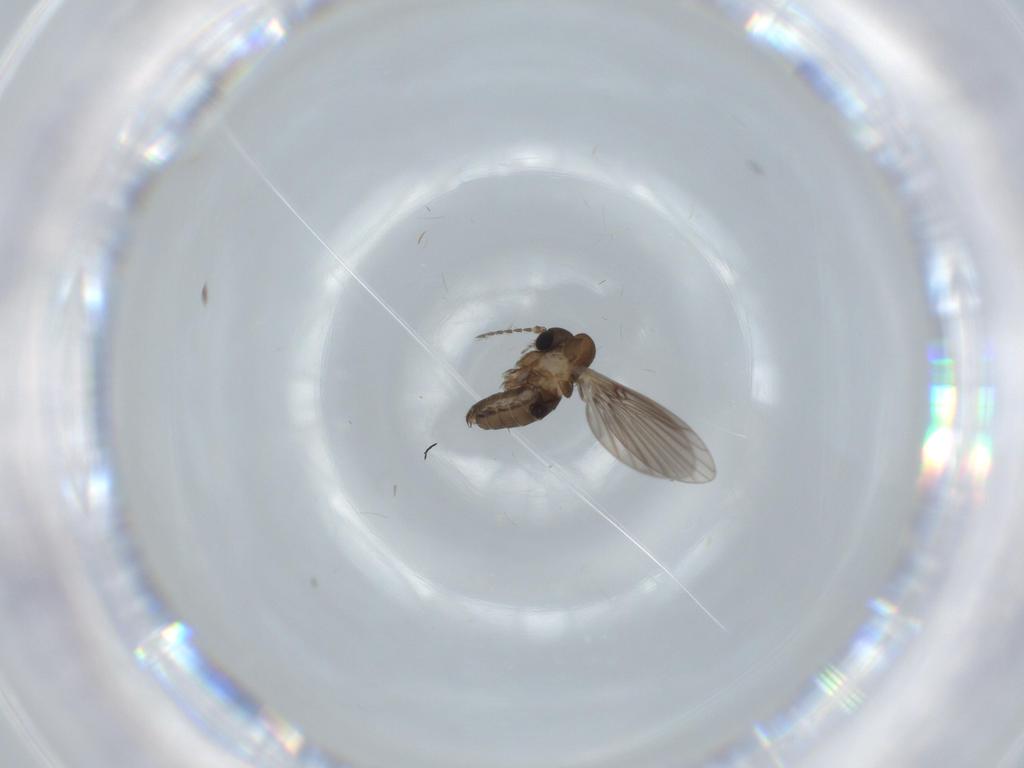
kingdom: Animalia
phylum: Arthropoda
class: Insecta
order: Diptera
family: Psychodidae
